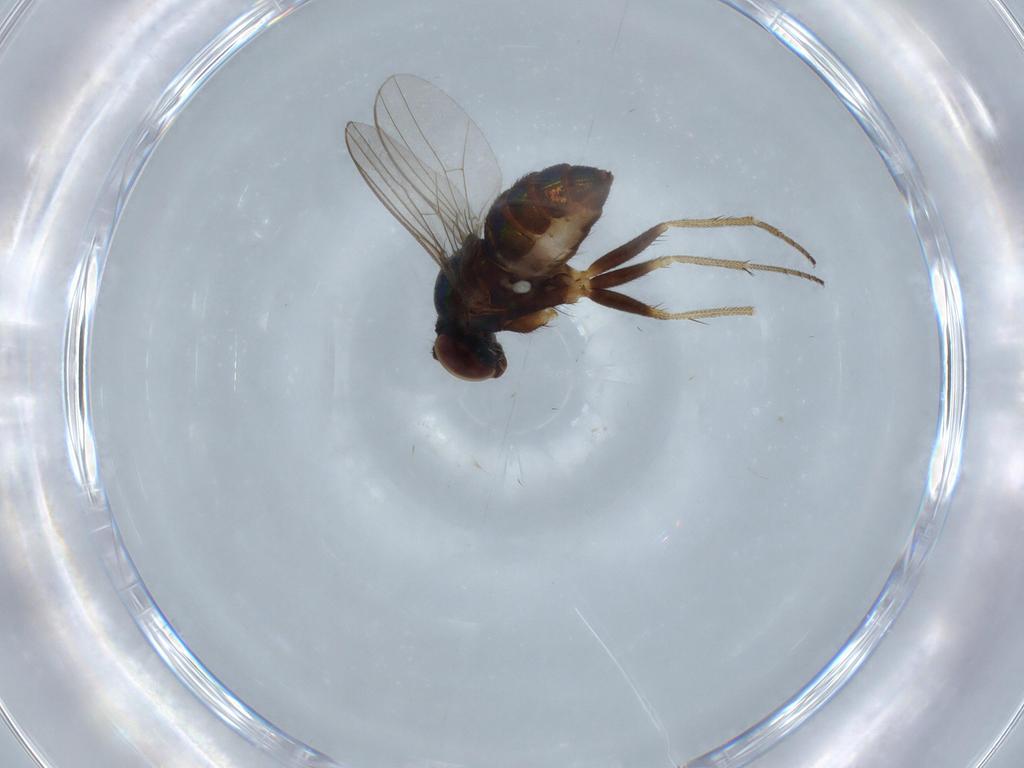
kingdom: Animalia
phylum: Arthropoda
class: Insecta
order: Diptera
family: Dolichopodidae
